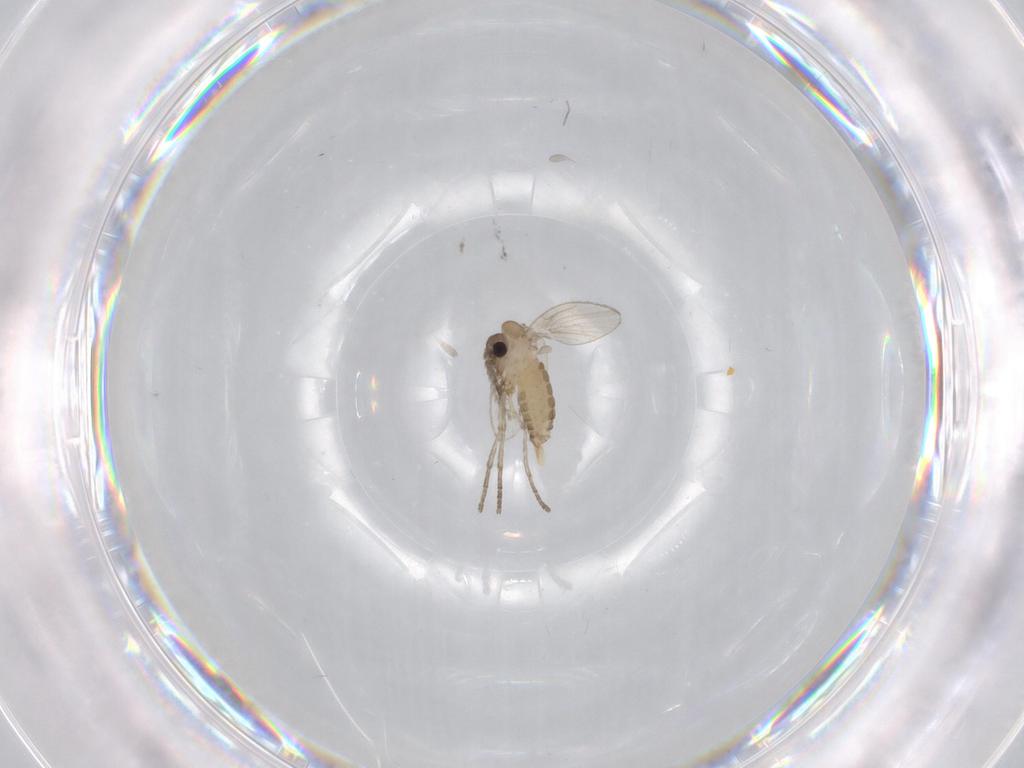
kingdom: Animalia
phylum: Arthropoda
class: Insecta
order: Diptera
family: Psychodidae
